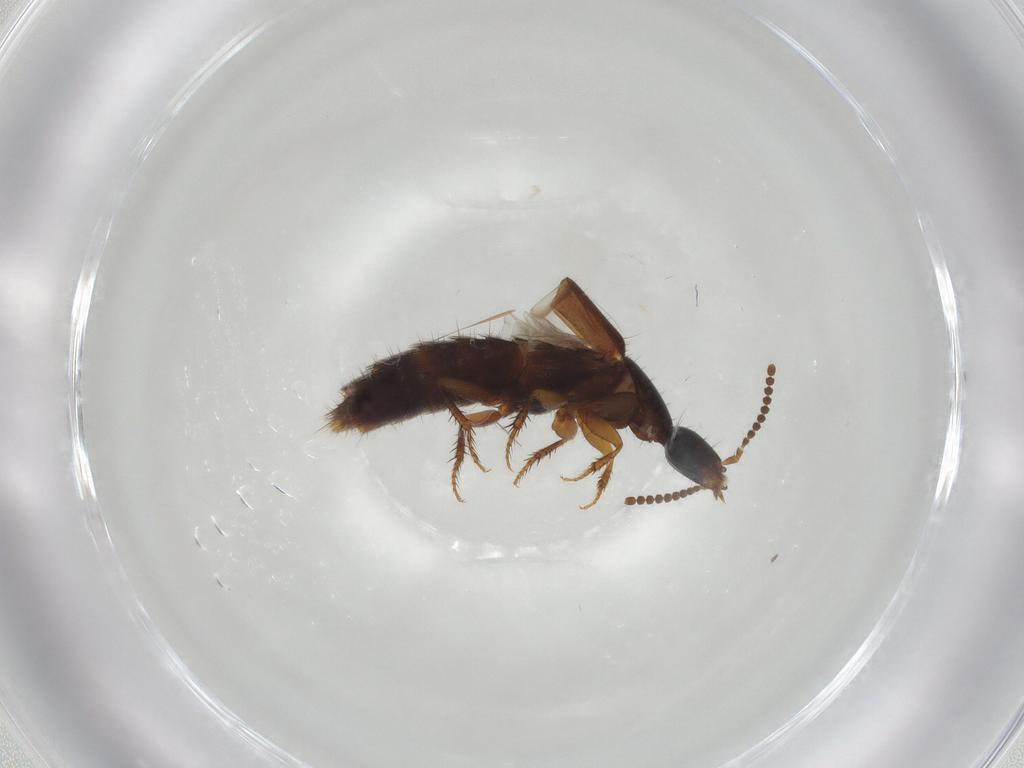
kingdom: Animalia
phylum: Arthropoda
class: Insecta
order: Coleoptera
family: Staphylinidae
